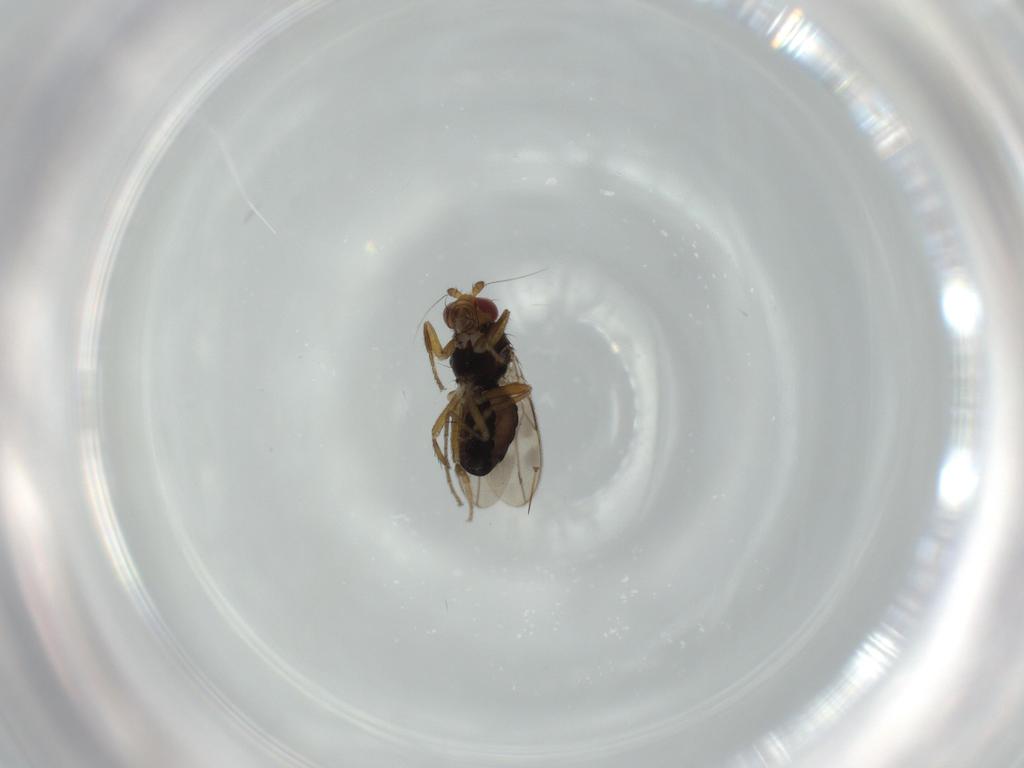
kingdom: Animalia
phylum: Arthropoda
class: Insecta
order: Diptera
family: Sphaeroceridae
